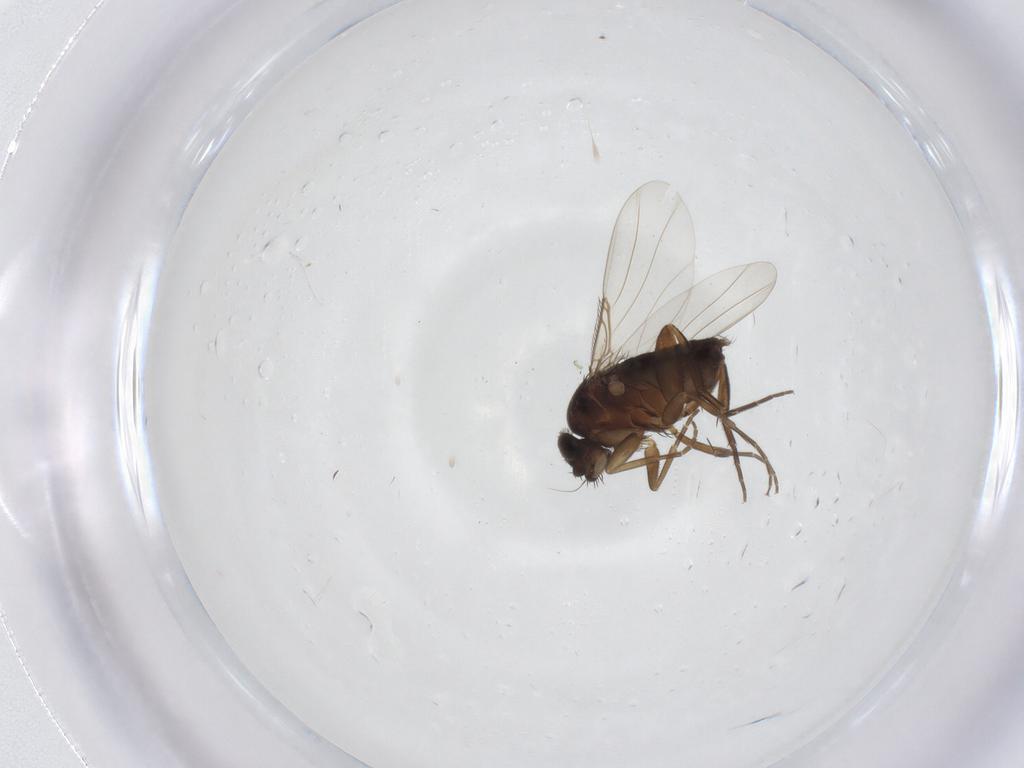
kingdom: Animalia
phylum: Arthropoda
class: Insecta
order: Diptera
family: Phoridae
